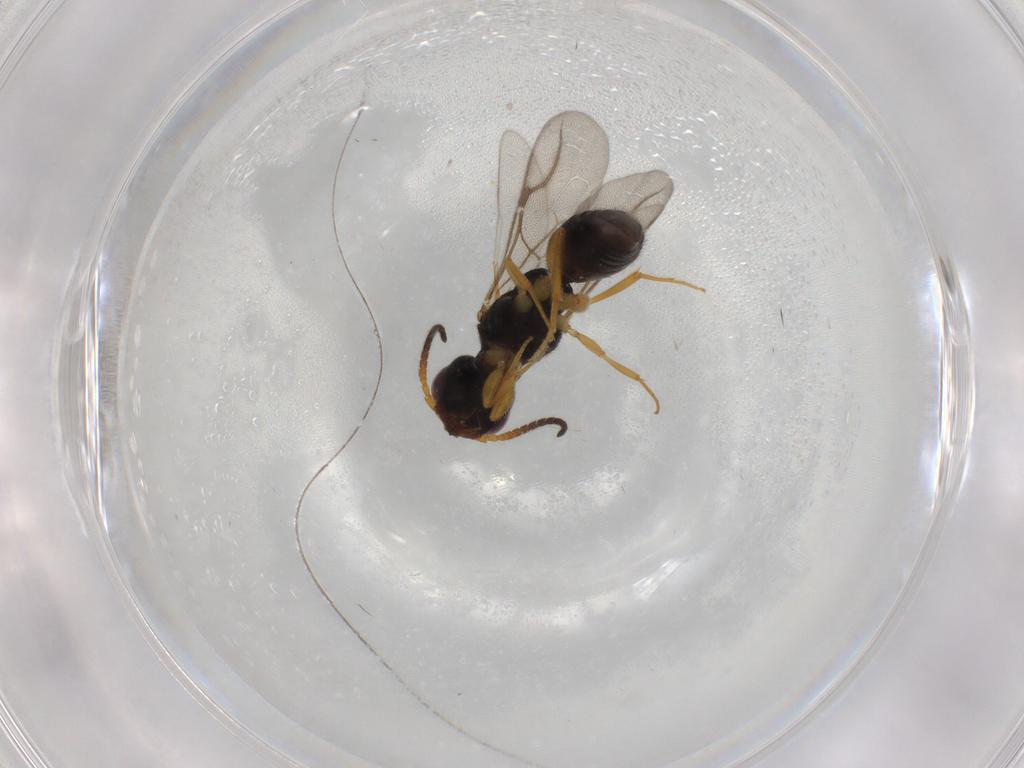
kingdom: Animalia
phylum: Arthropoda
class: Insecta
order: Hymenoptera
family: Bethylidae
